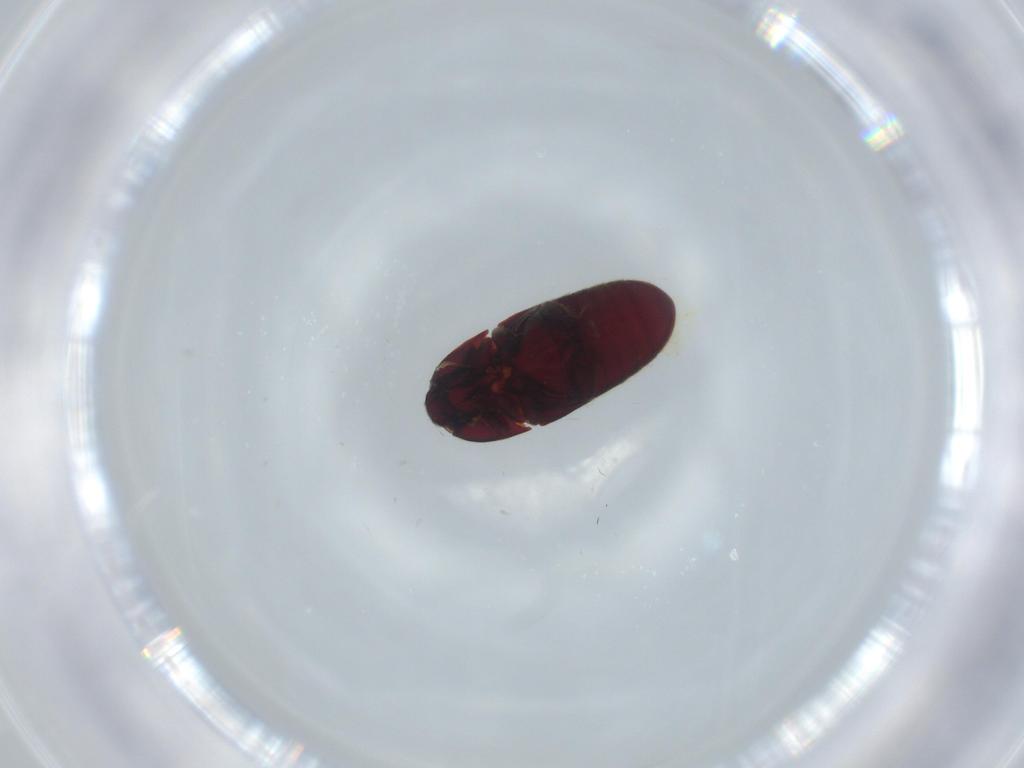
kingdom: Animalia
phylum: Arthropoda
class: Insecta
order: Coleoptera
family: Throscidae
